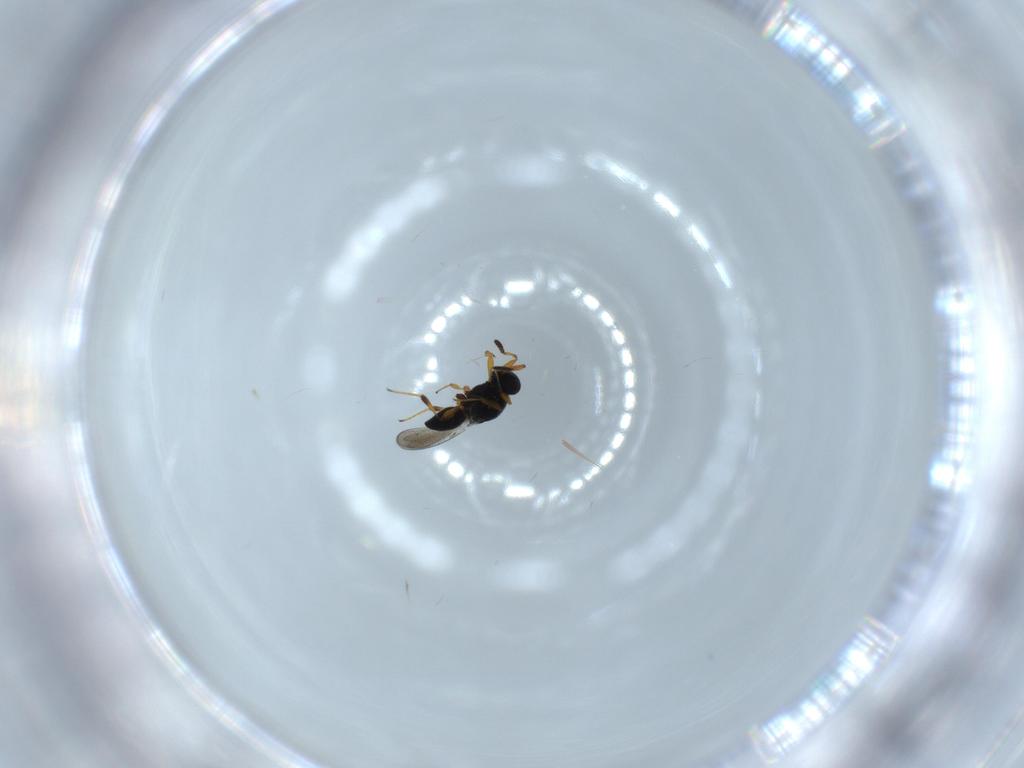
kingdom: Animalia
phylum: Arthropoda
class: Insecta
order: Hymenoptera
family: Platygastridae
